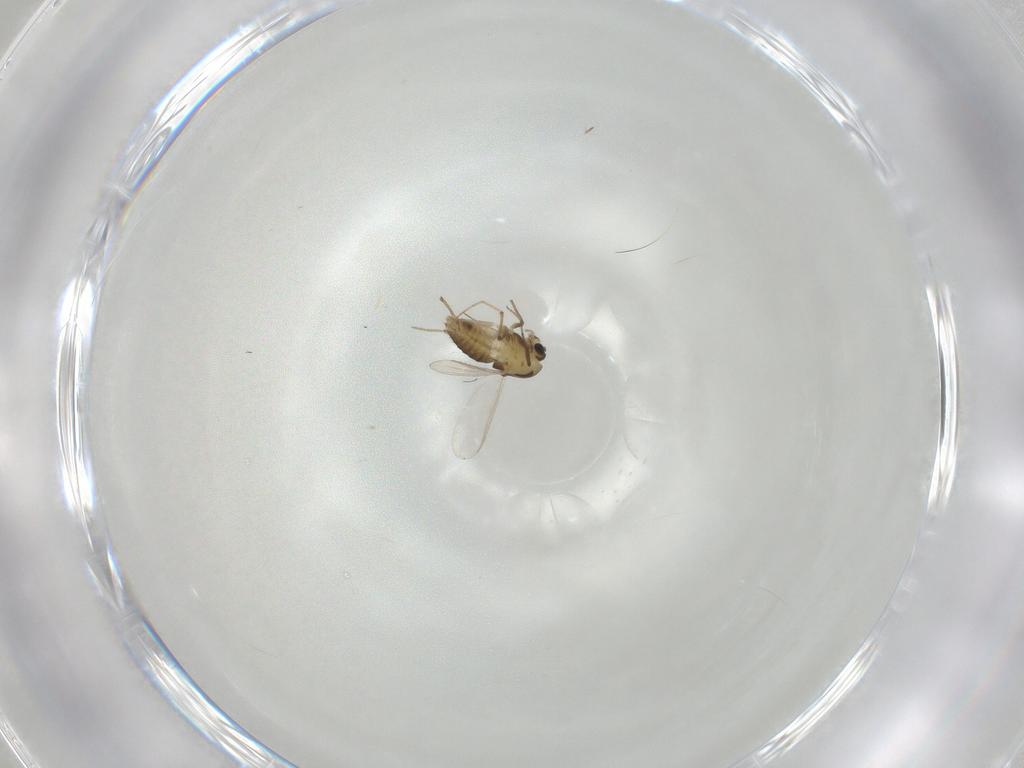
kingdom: Animalia
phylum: Arthropoda
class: Insecta
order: Diptera
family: Chironomidae
